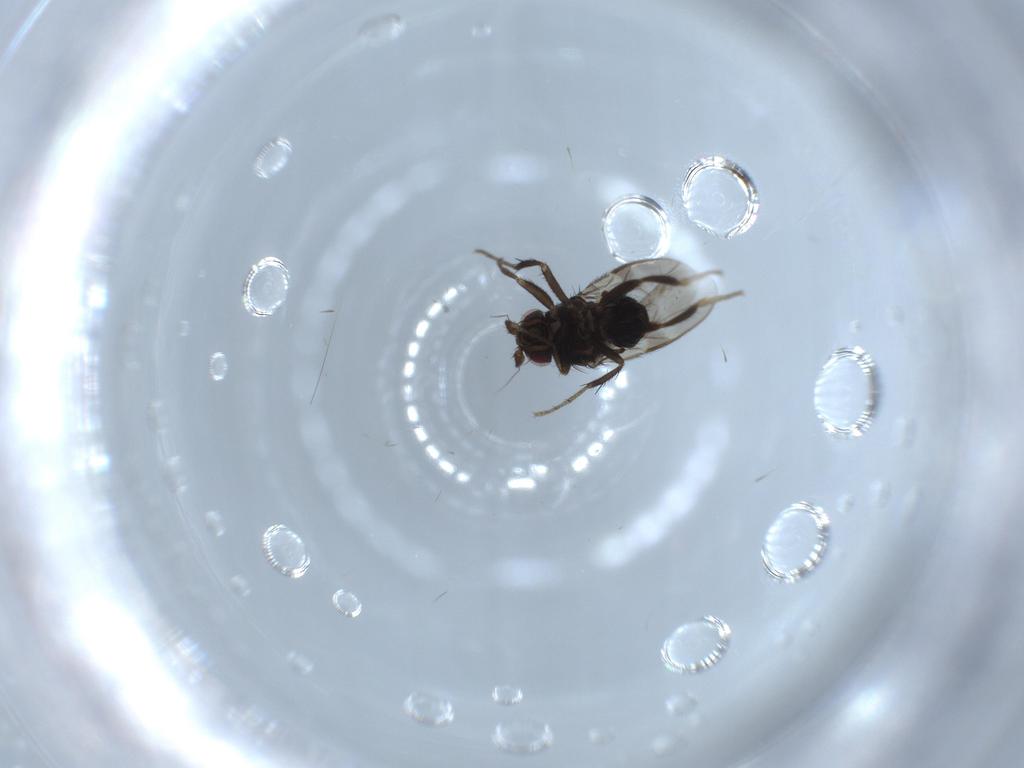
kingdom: Animalia
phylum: Arthropoda
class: Insecta
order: Diptera
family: Sphaeroceridae
